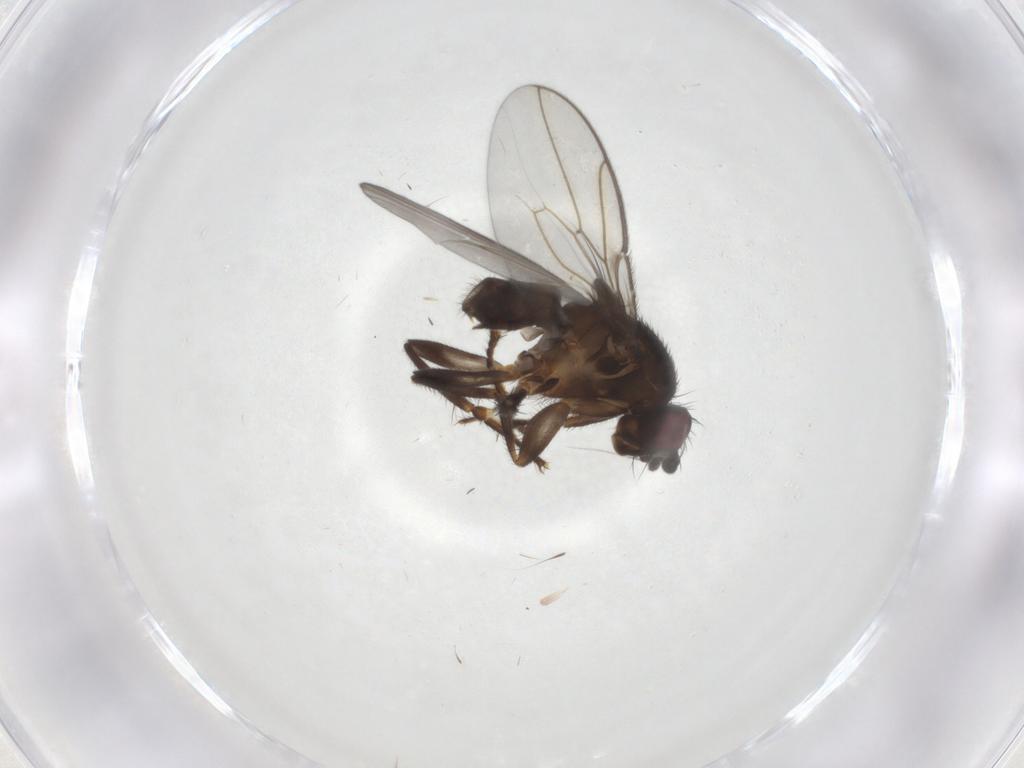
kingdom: Animalia
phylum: Arthropoda
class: Insecta
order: Diptera
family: Sphaeroceridae
